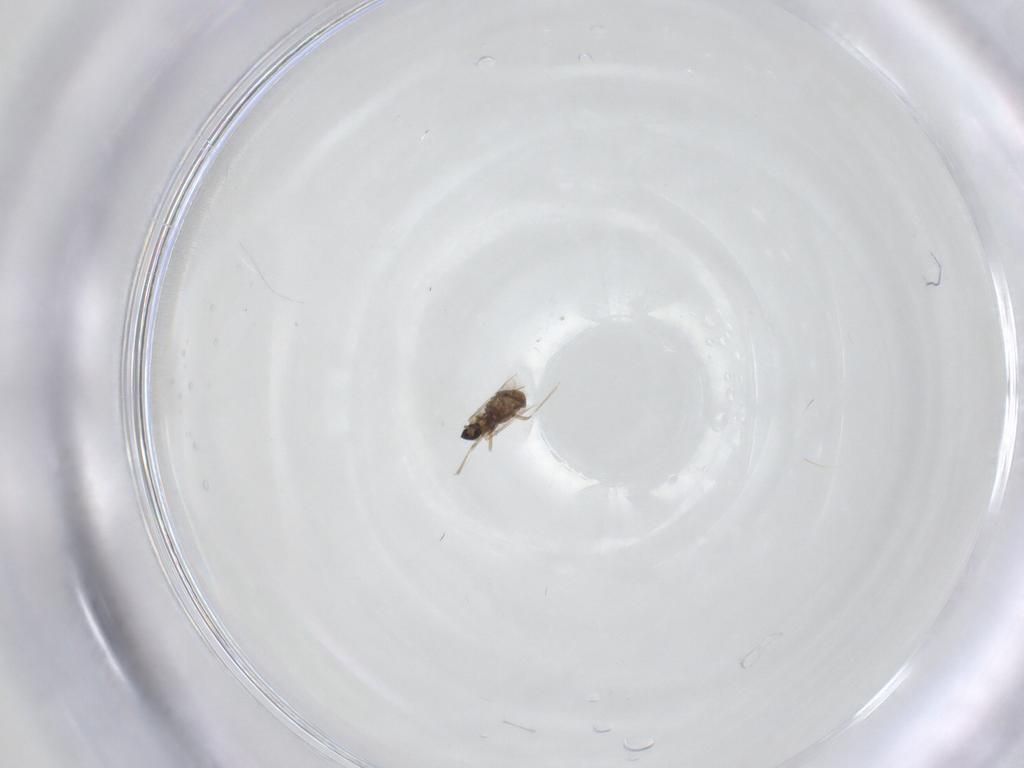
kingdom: Animalia
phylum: Arthropoda
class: Insecta
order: Diptera
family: Cecidomyiidae
